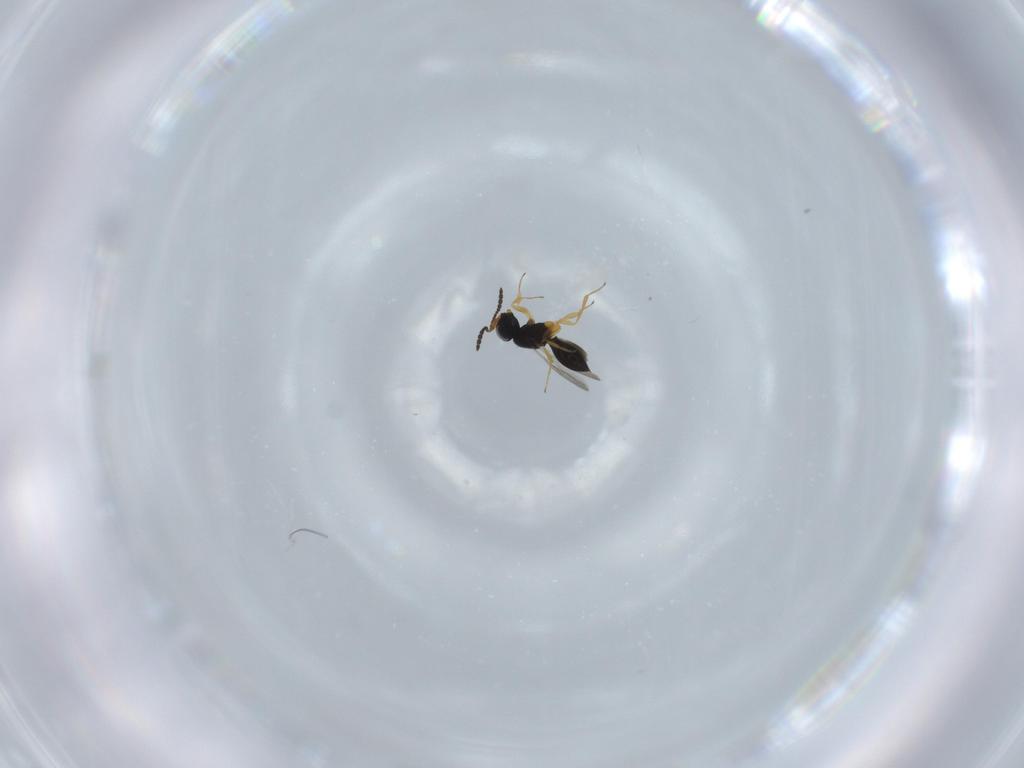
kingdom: Animalia
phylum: Arthropoda
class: Insecta
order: Hymenoptera
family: Scelionidae
